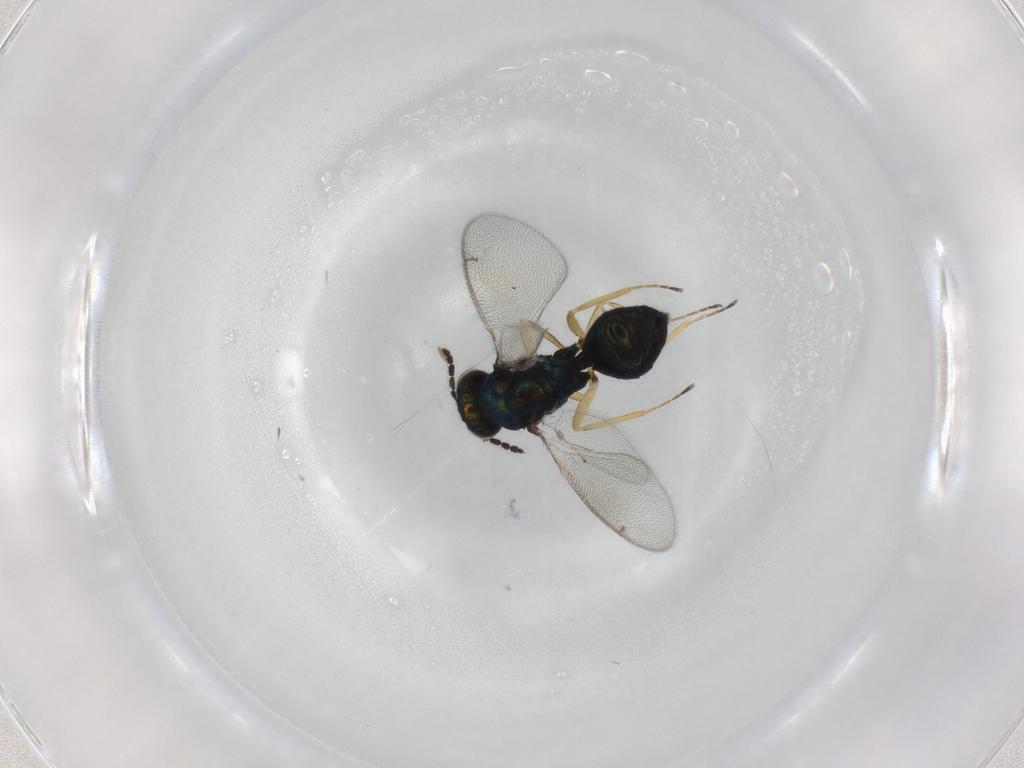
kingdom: Animalia
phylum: Arthropoda
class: Insecta
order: Hymenoptera
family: Eulophidae
